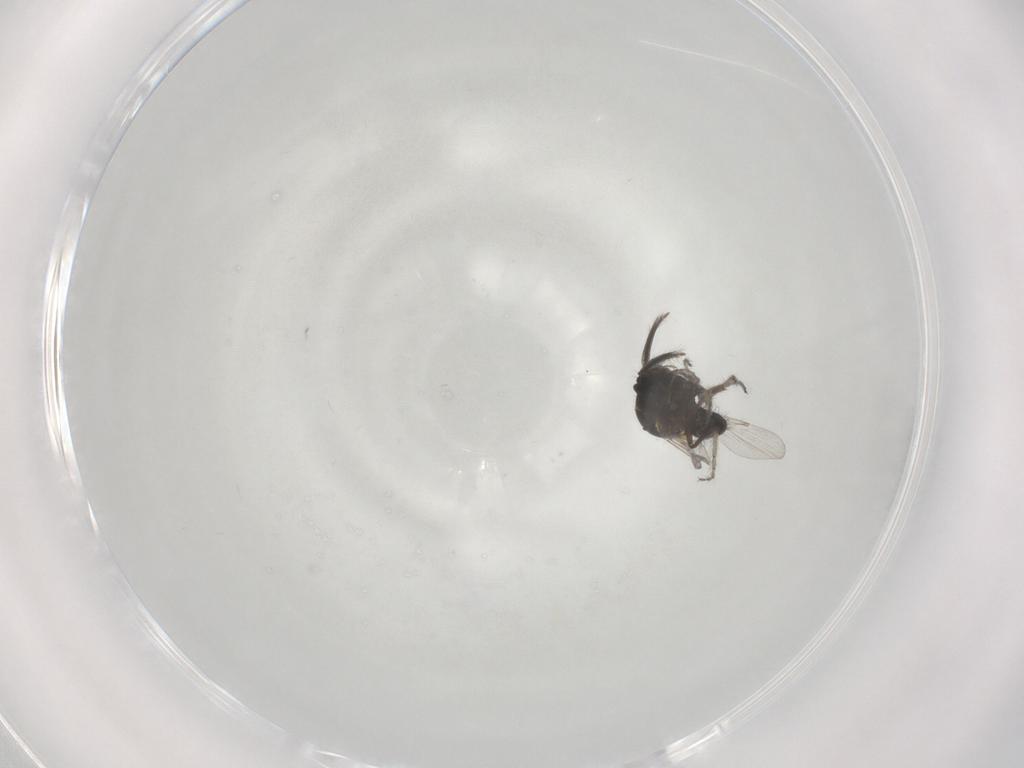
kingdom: Animalia
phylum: Arthropoda
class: Insecta
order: Diptera
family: Ceratopogonidae
